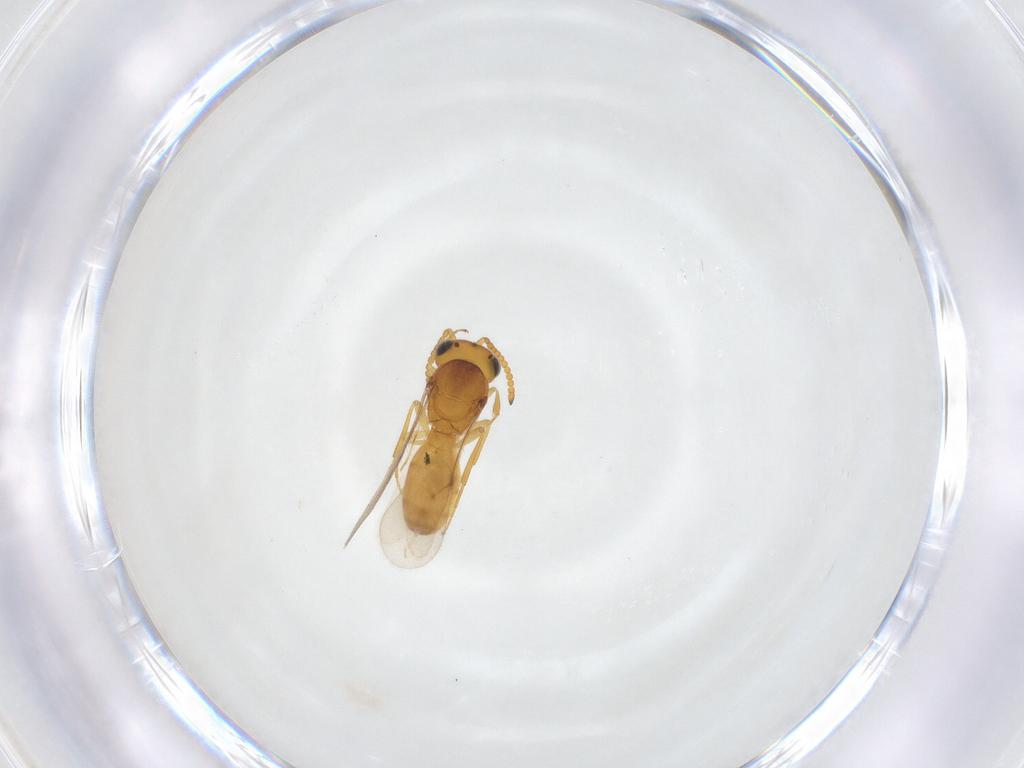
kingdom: Animalia
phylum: Arthropoda
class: Insecta
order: Hymenoptera
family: Scelionidae
